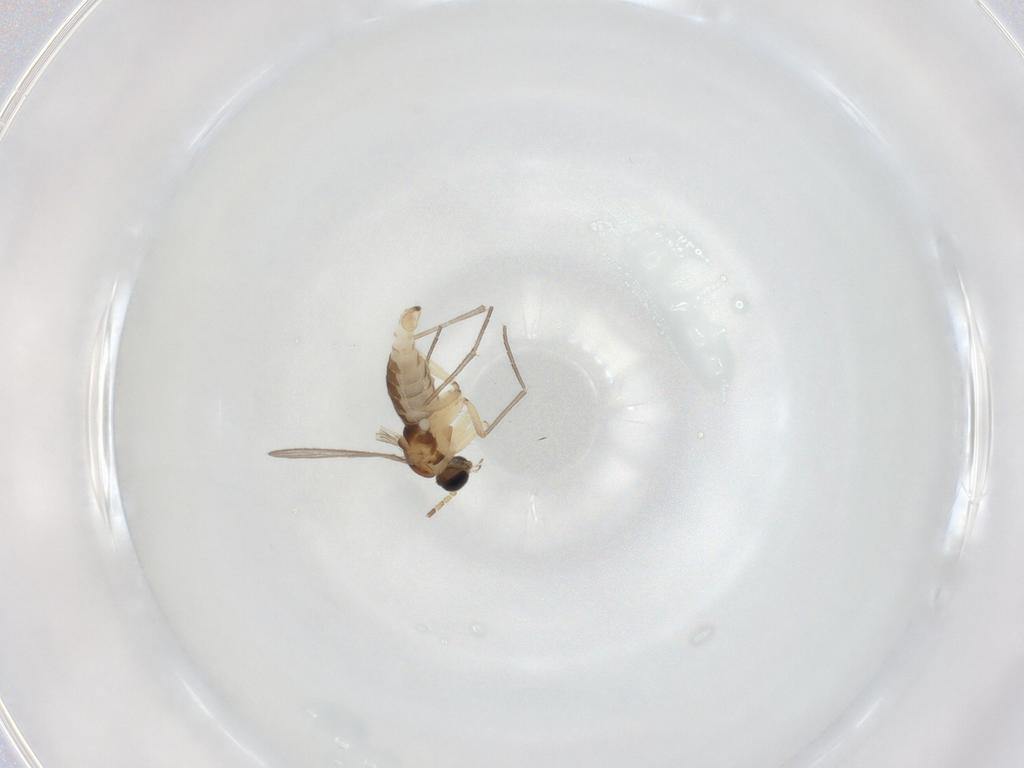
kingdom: Animalia
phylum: Arthropoda
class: Insecta
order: Diptera
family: Sciaridae
